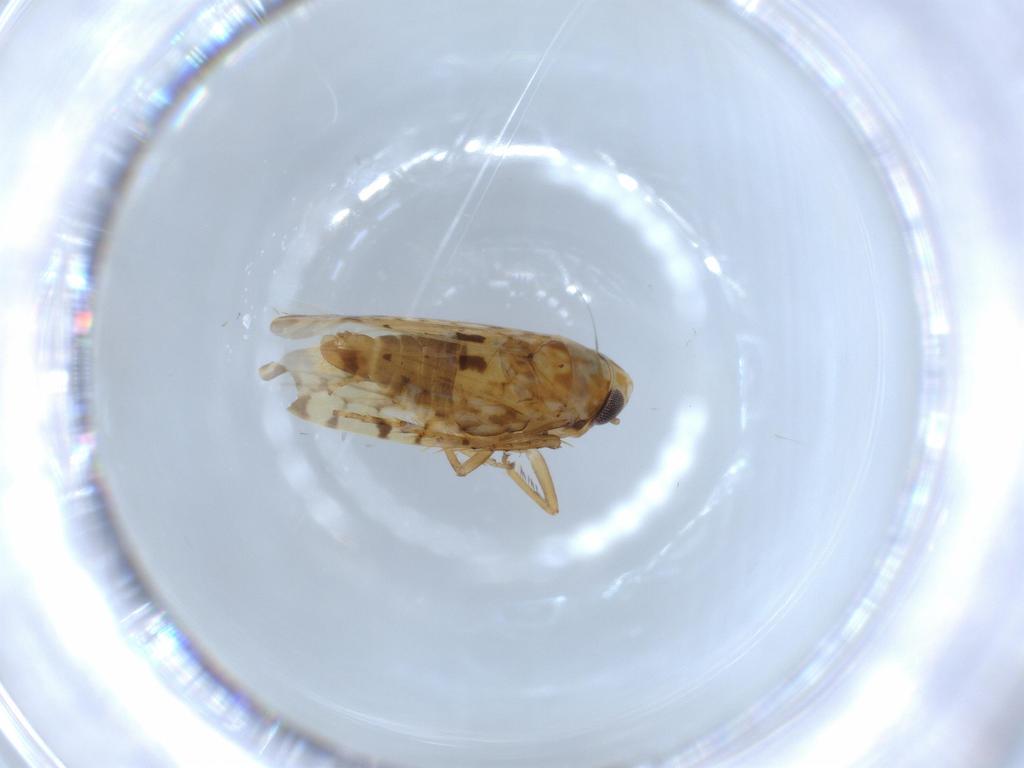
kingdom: Animalia
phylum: Arthropoda
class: Insecta
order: Hemiptera
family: Cicadellidae
